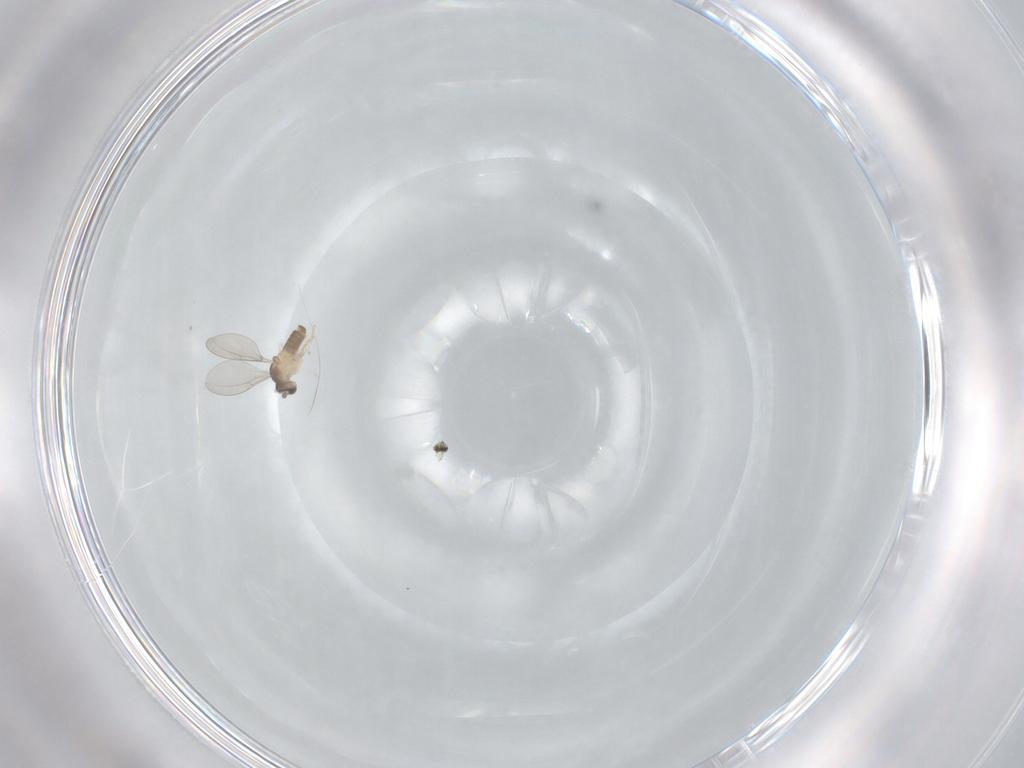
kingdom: Animalia
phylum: Arthropoda
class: Insecta
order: Diptera
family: Cecidomyiidae
